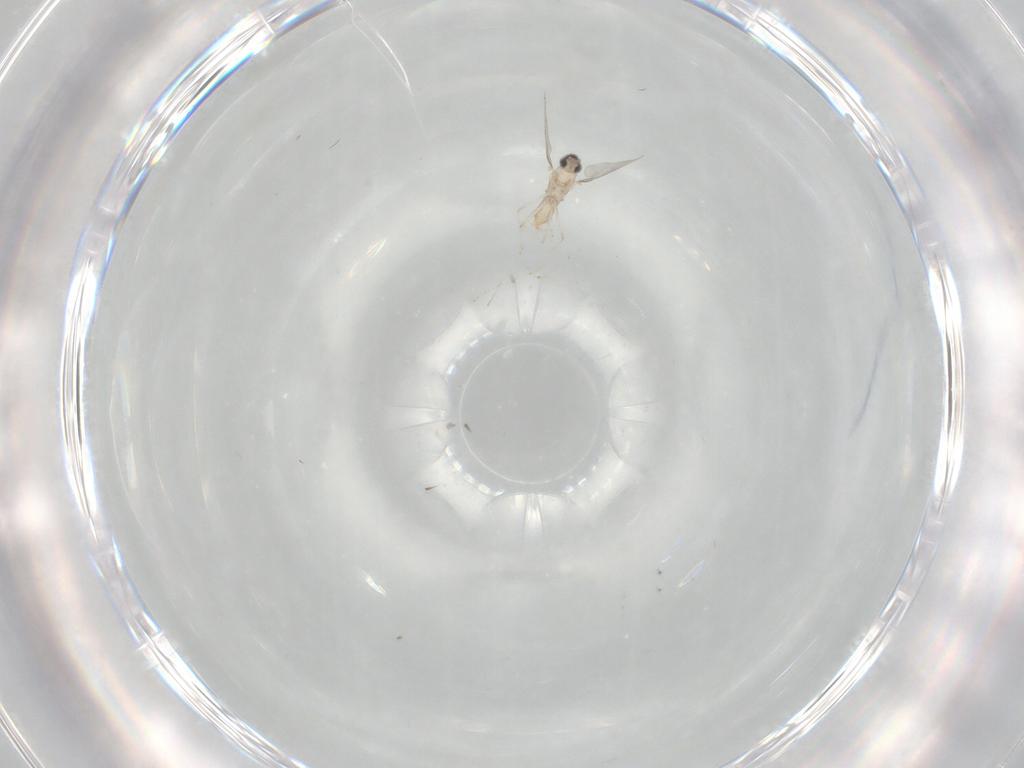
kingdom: Animalia
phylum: Arthropoda
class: Insecta
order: Diptera
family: Cecidomyiidae
